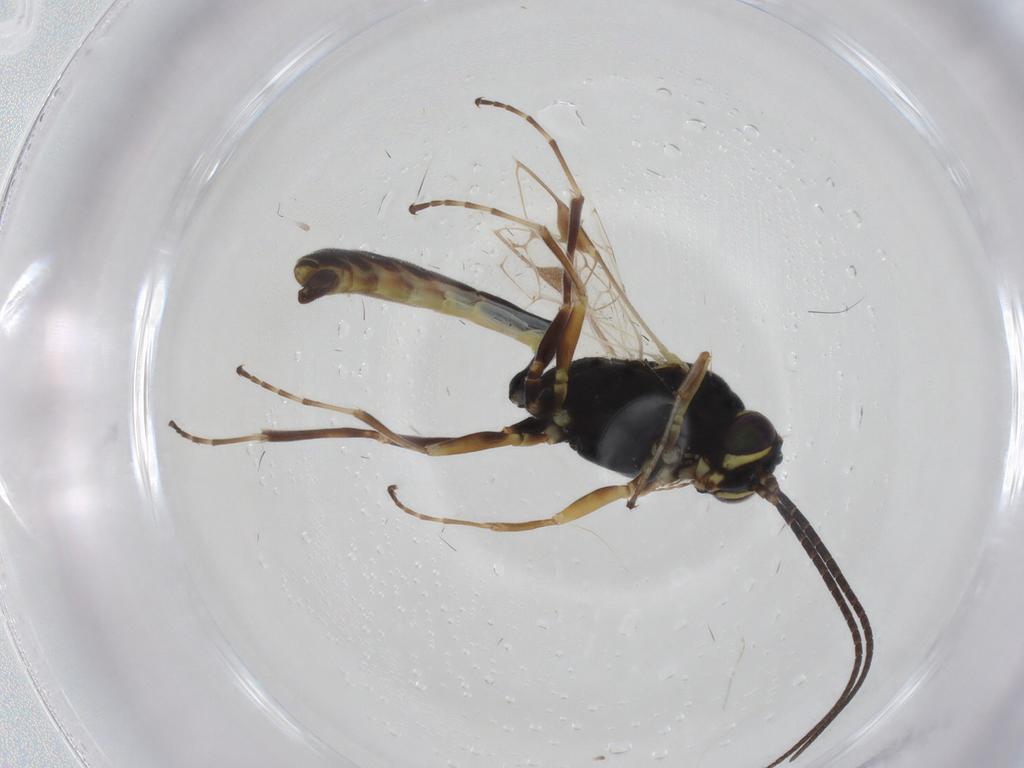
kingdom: Animalia
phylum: Arthropoda
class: Insecta
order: Hymenoptera
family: Ichneumonidae
